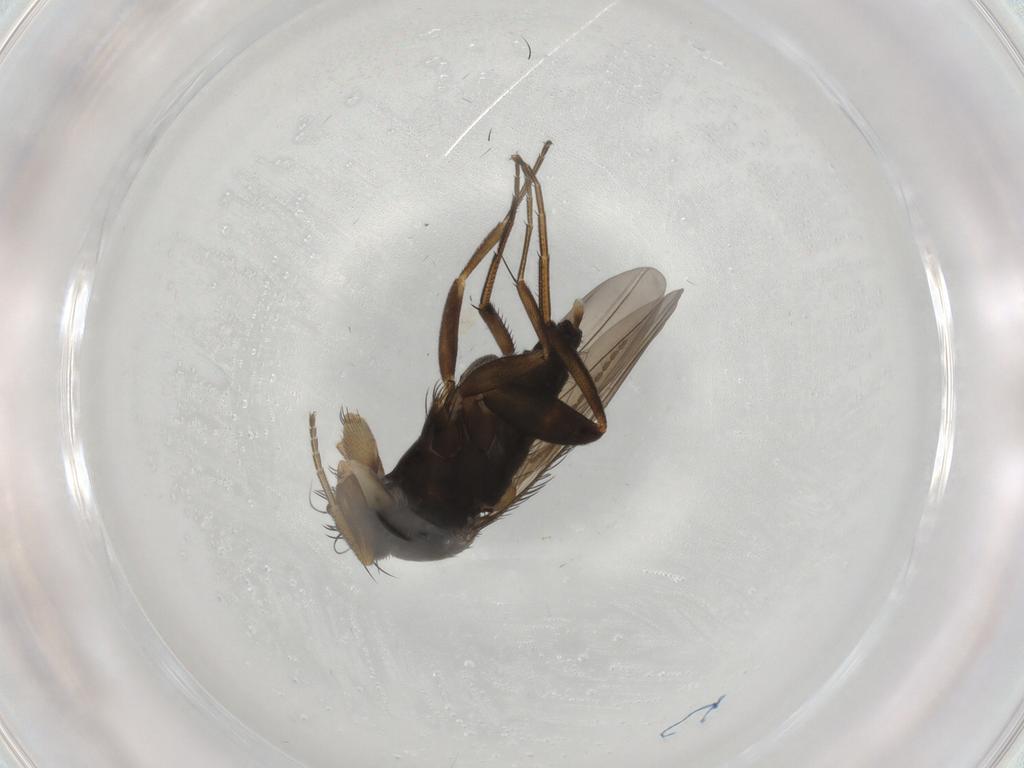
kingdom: Animalia
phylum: Arthropoda
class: Insecta
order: Diptera
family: Phoridae
